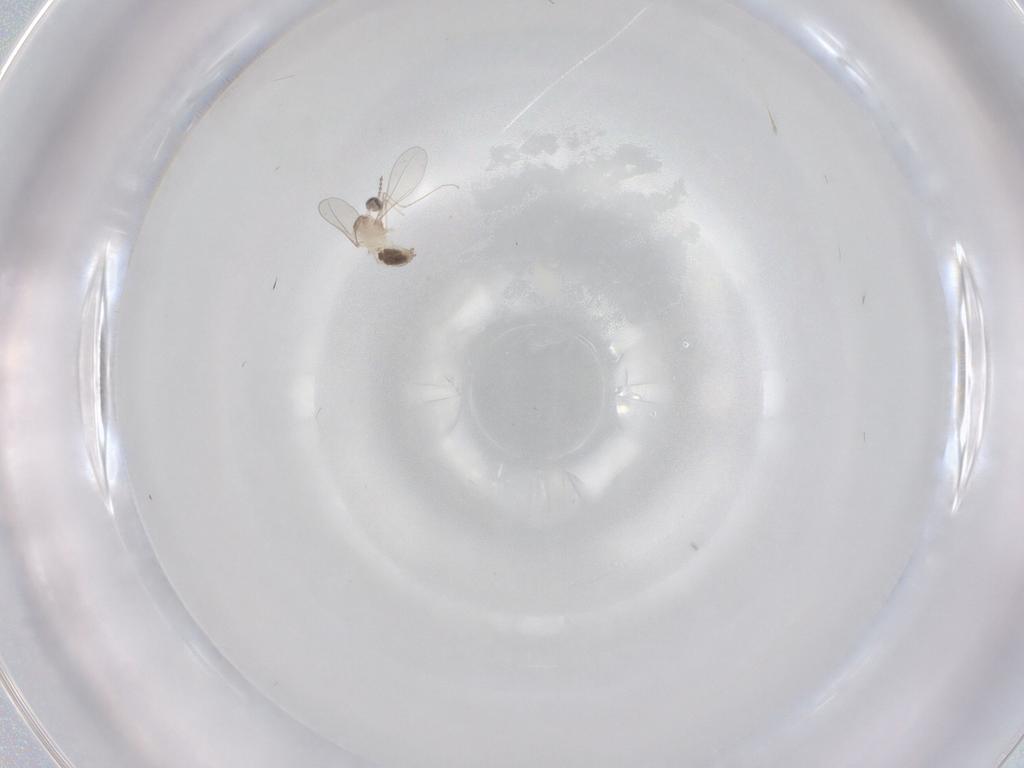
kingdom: Animalia
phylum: Arthropoda
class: Insecta
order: Diptera
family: Cecidomyiidae
